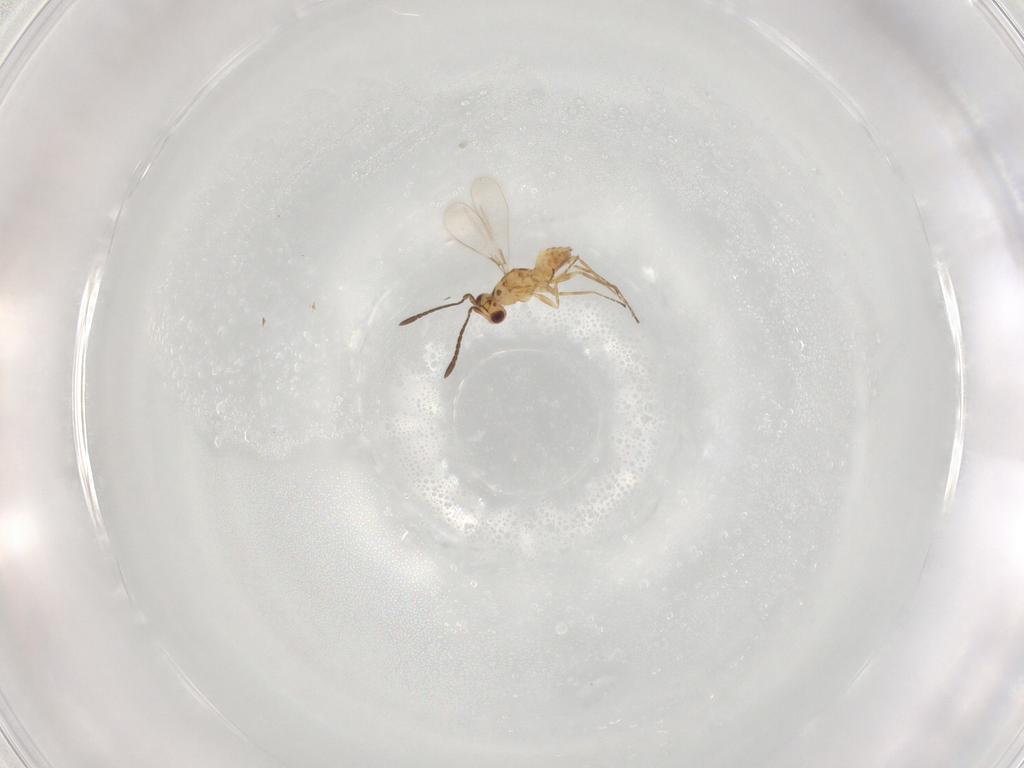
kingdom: Animalia
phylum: Arthropoda
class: Insecta
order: Hymenoptera
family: Mymaridae
